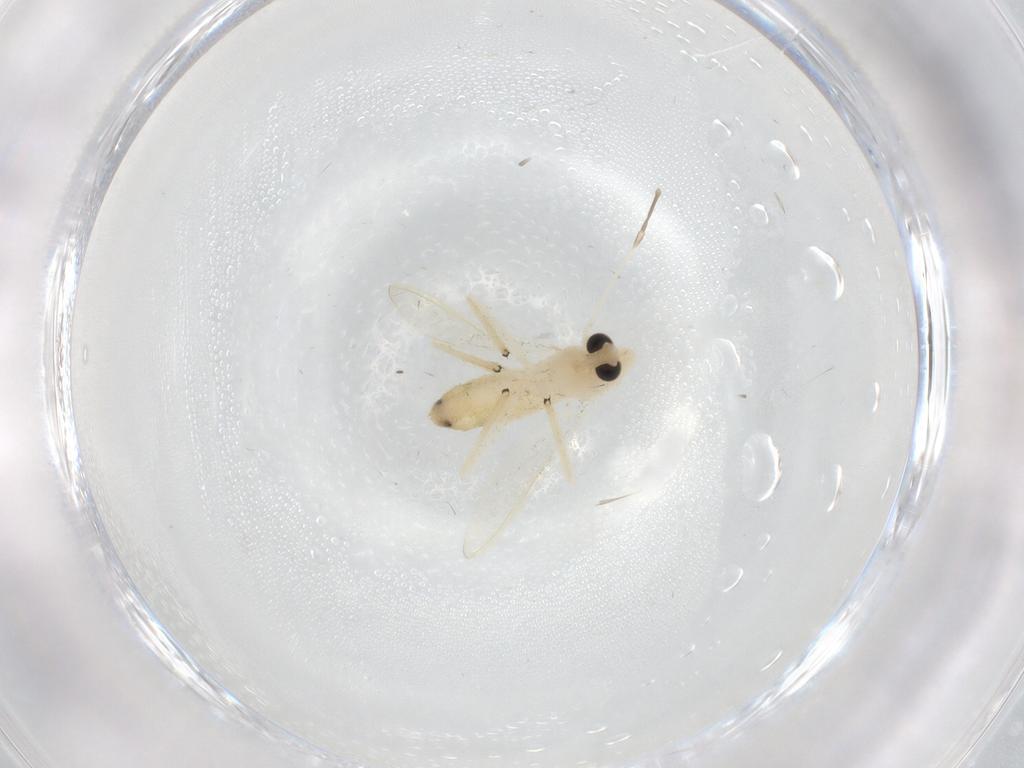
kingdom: Animalia
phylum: Arthropoda
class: Insecta
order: Diptera
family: Chironomidae
